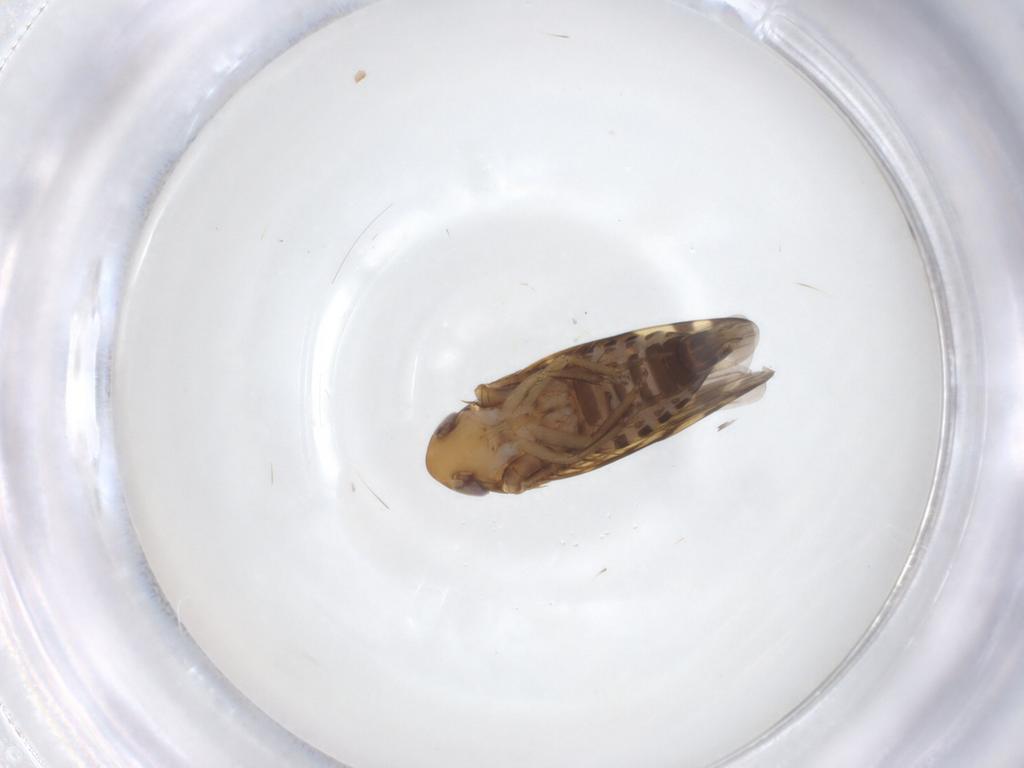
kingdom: Animalia
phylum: Arthropoda
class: Insecta
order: Hemiptera
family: Cicadellidae
